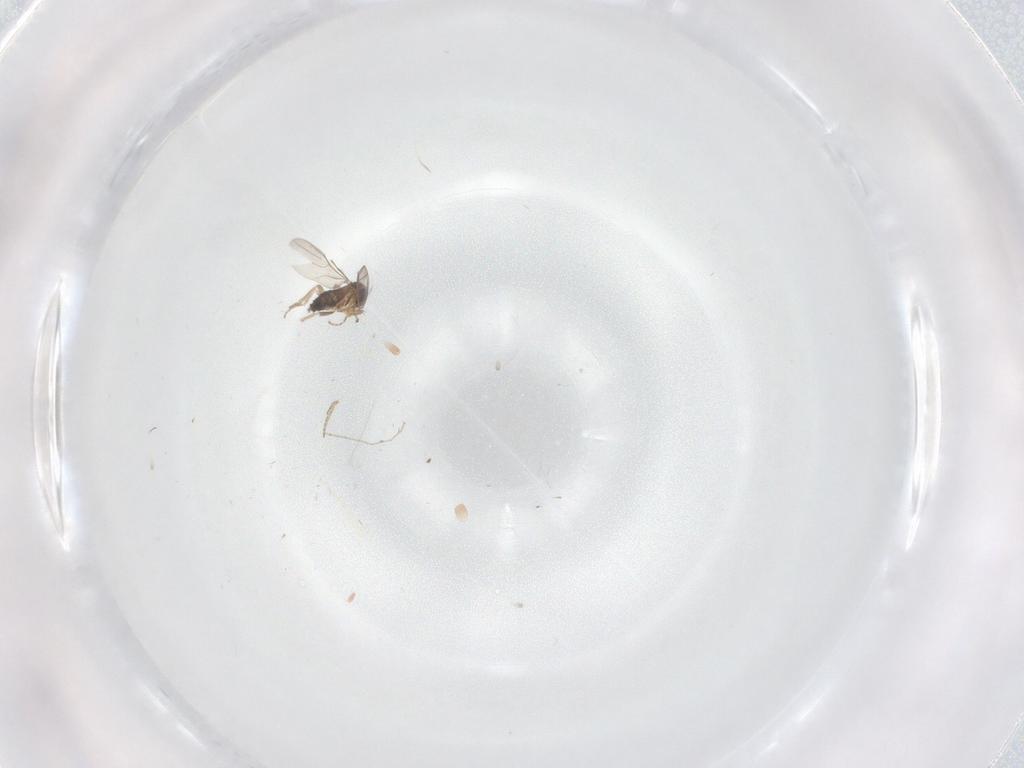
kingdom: Animalia
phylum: Arthropoda
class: Insecta
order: Diptera
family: Phoridae
